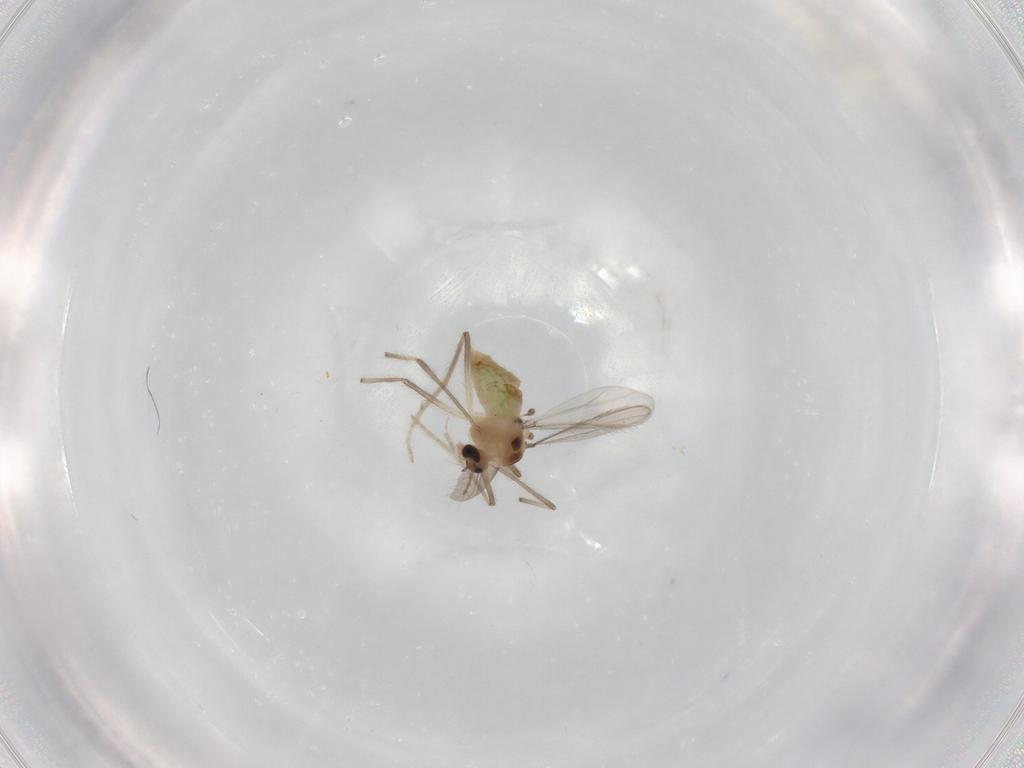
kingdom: Animalia
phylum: Arthropoda
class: Insecta
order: Diptera
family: Chironomidae
